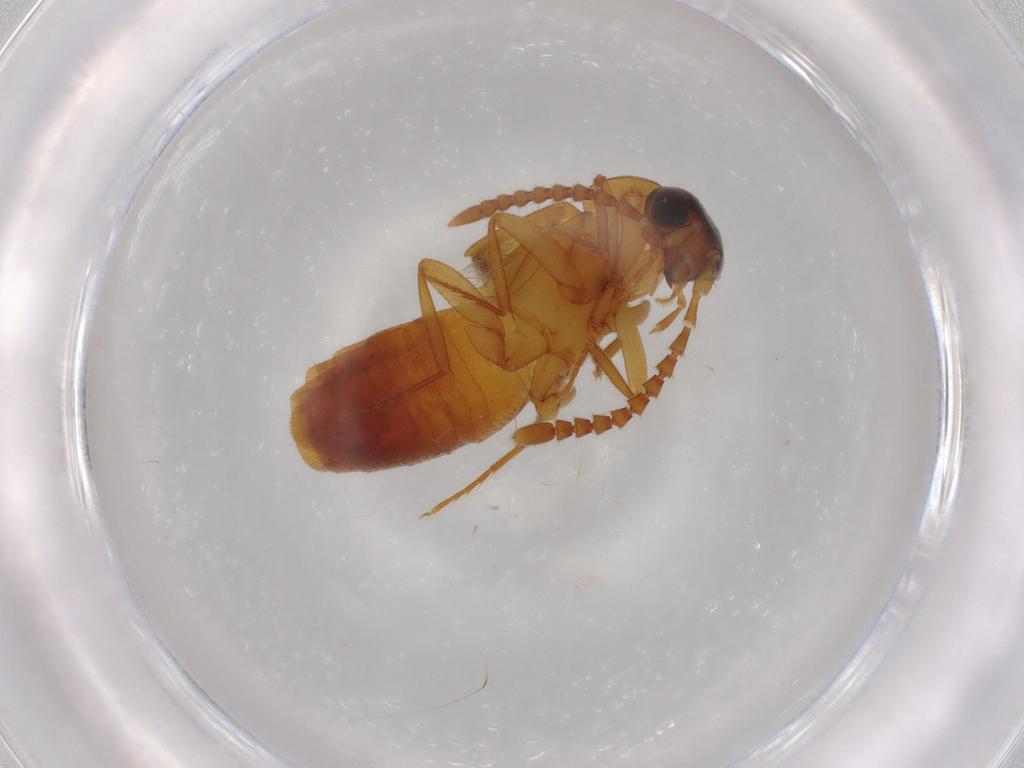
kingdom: Animalia
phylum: Arthropoda
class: Insecta
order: Coleoptera
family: Staphylinidae
